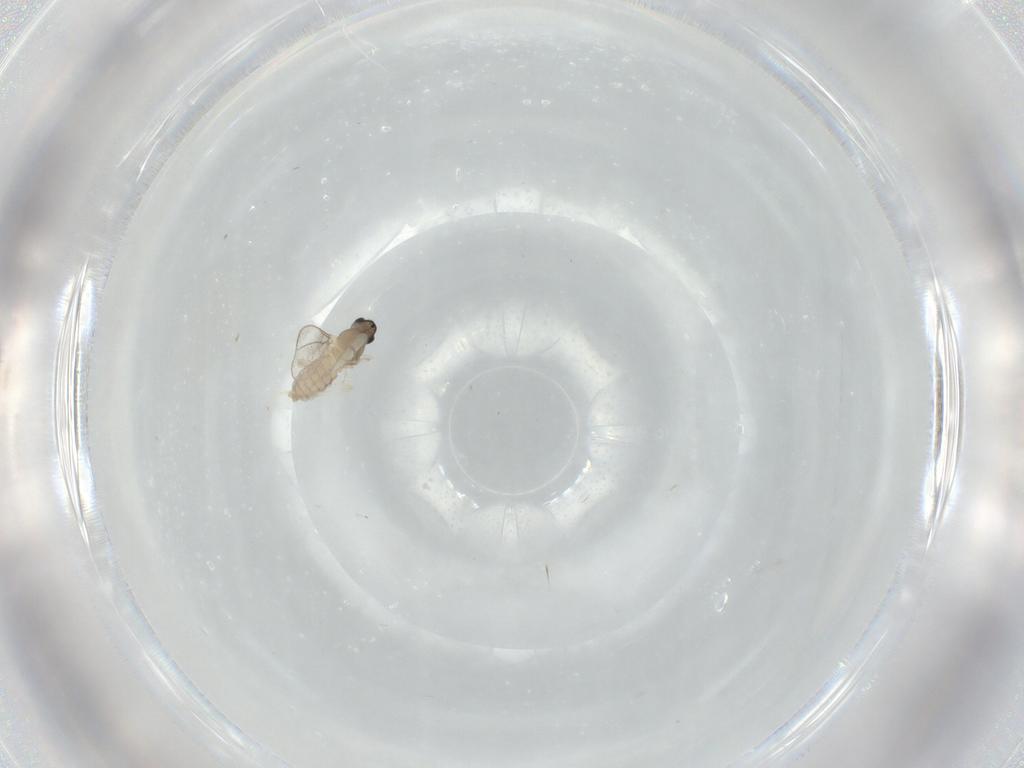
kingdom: Animalia
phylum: Arthropoda
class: Insecta
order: Diptera
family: Cecidomyiidae
